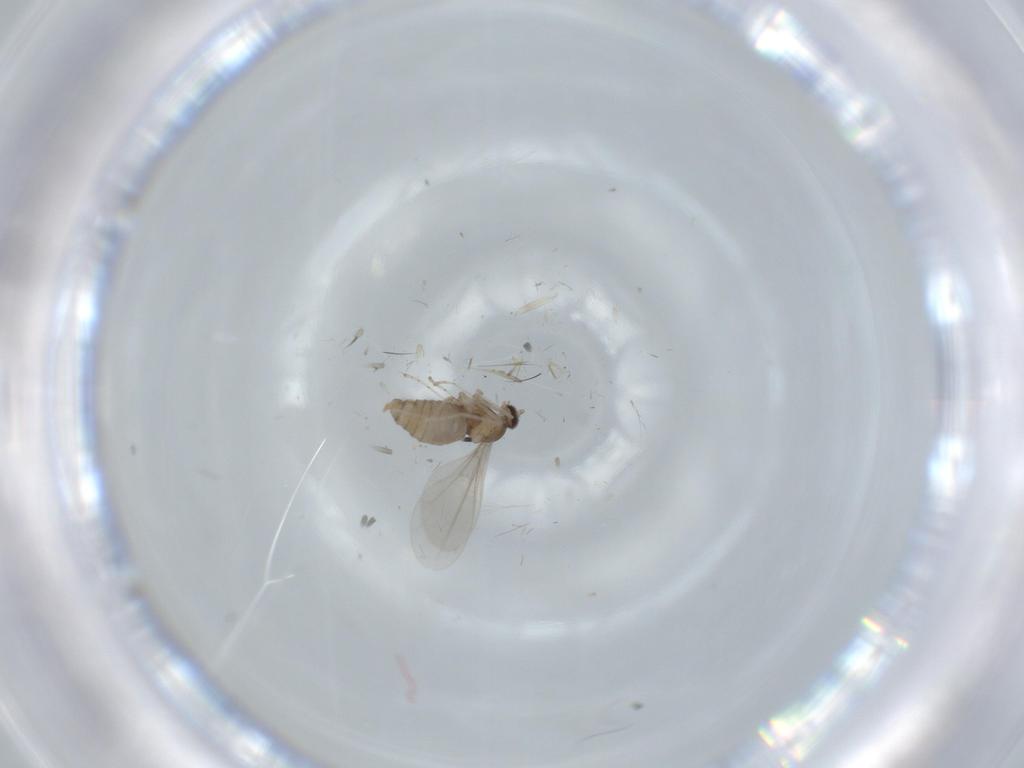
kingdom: Animalia
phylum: Arthropoda
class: Insecta
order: Diptera
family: Chironomidae
